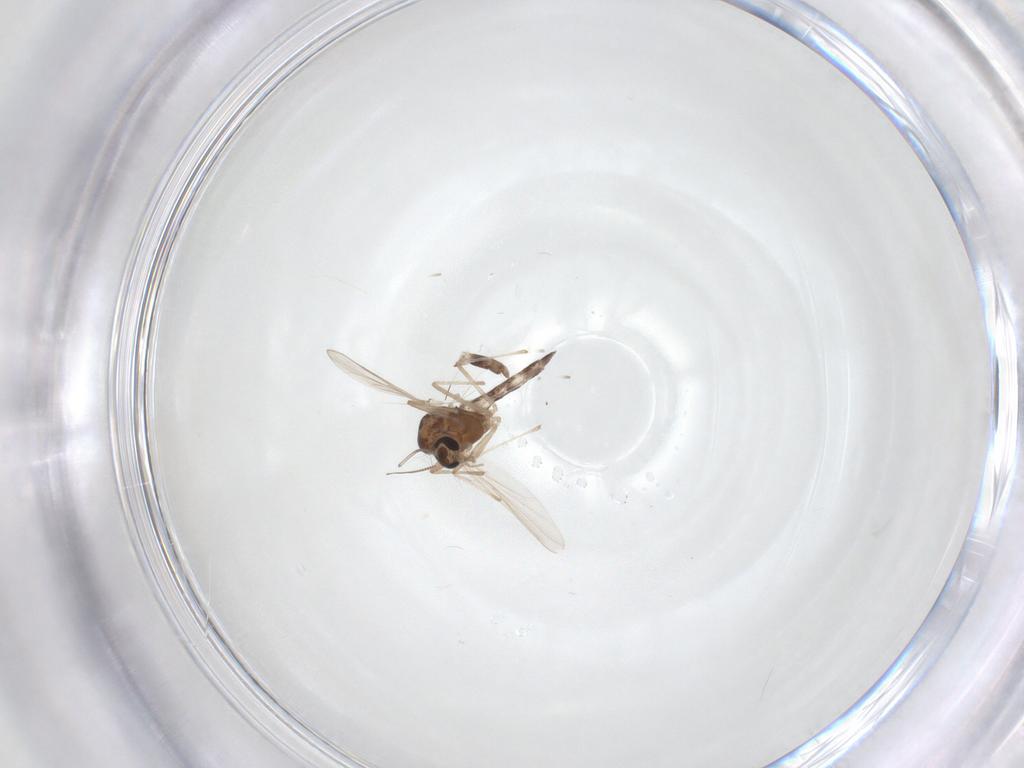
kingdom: Animalia
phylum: Arthropoda
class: Insecta
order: Diptera
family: Chironomidae
